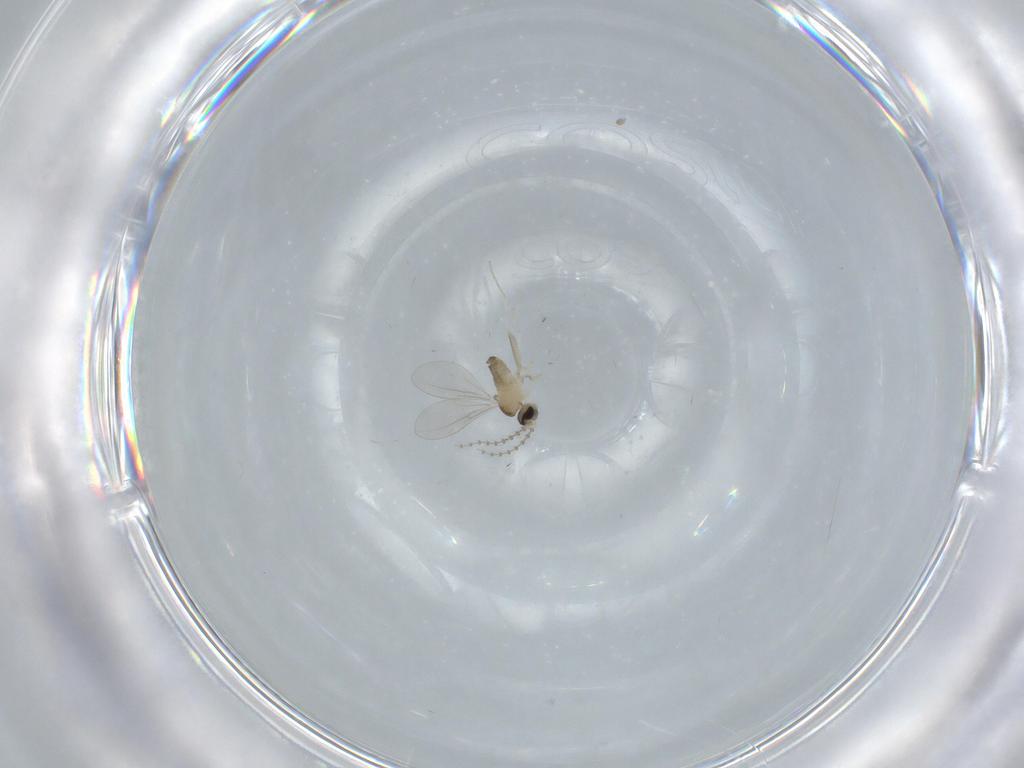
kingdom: Animalia
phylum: Arthropoda
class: Insecta
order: Diptera
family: Cecidomyiidae
